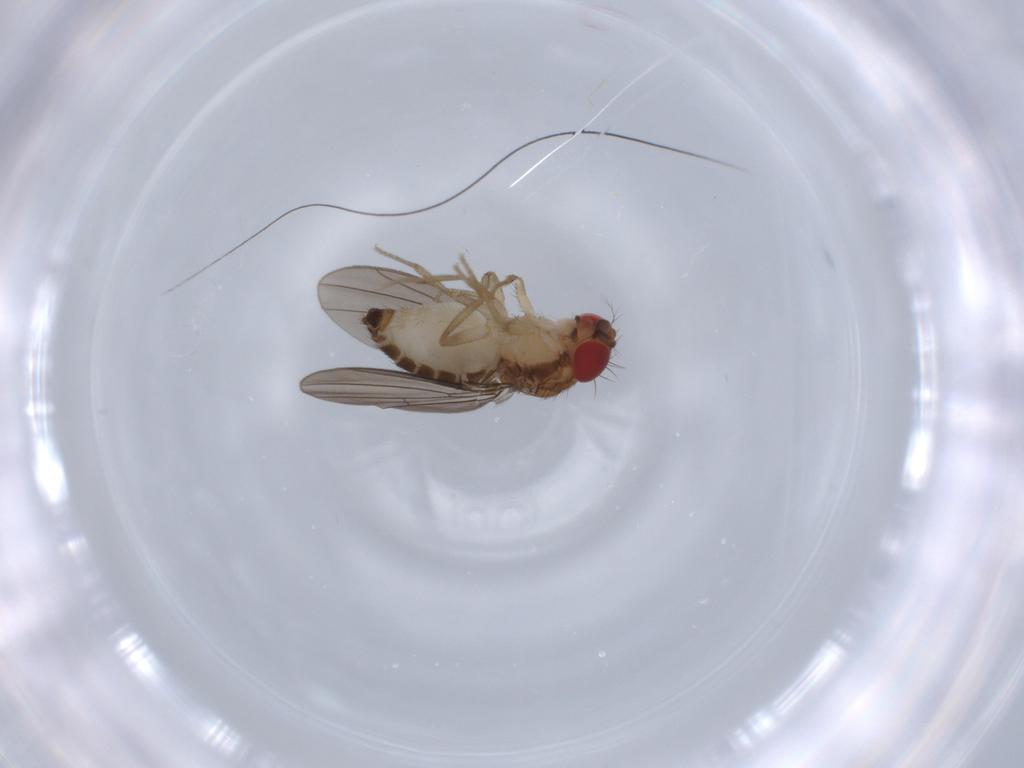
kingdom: Animalia
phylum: Arthropoda
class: Insecta
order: Diptera
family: Drosophilidae
